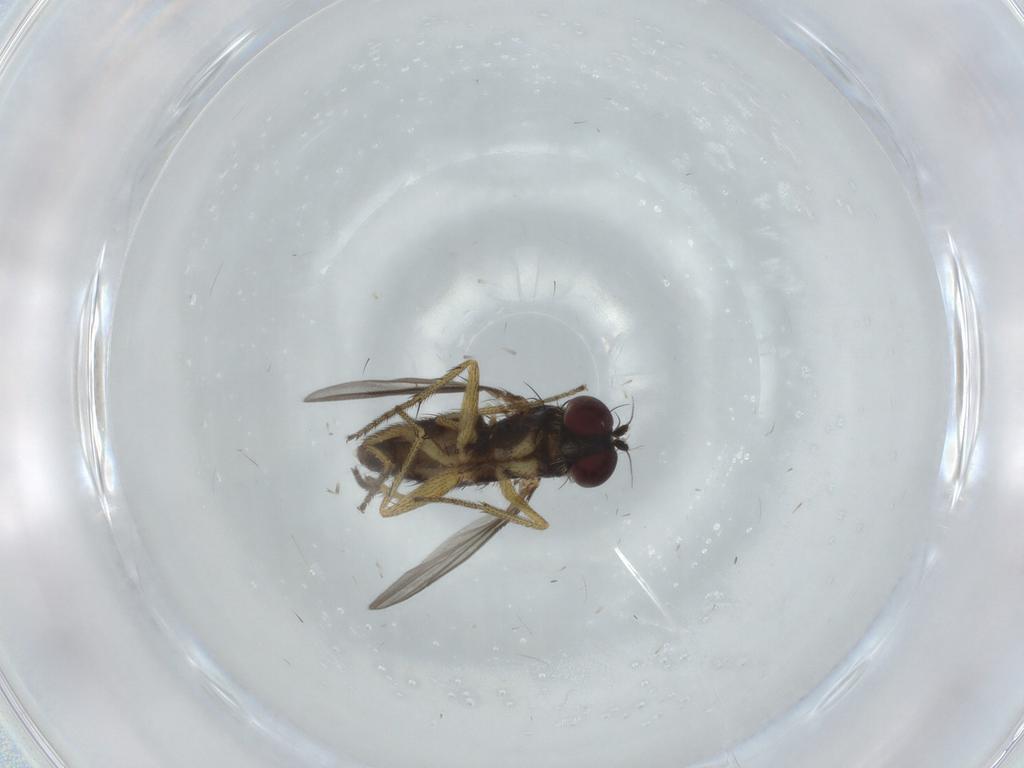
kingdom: Animalia
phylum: Arthropoda
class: Insecta
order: Diptera
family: Dolichopodidae
